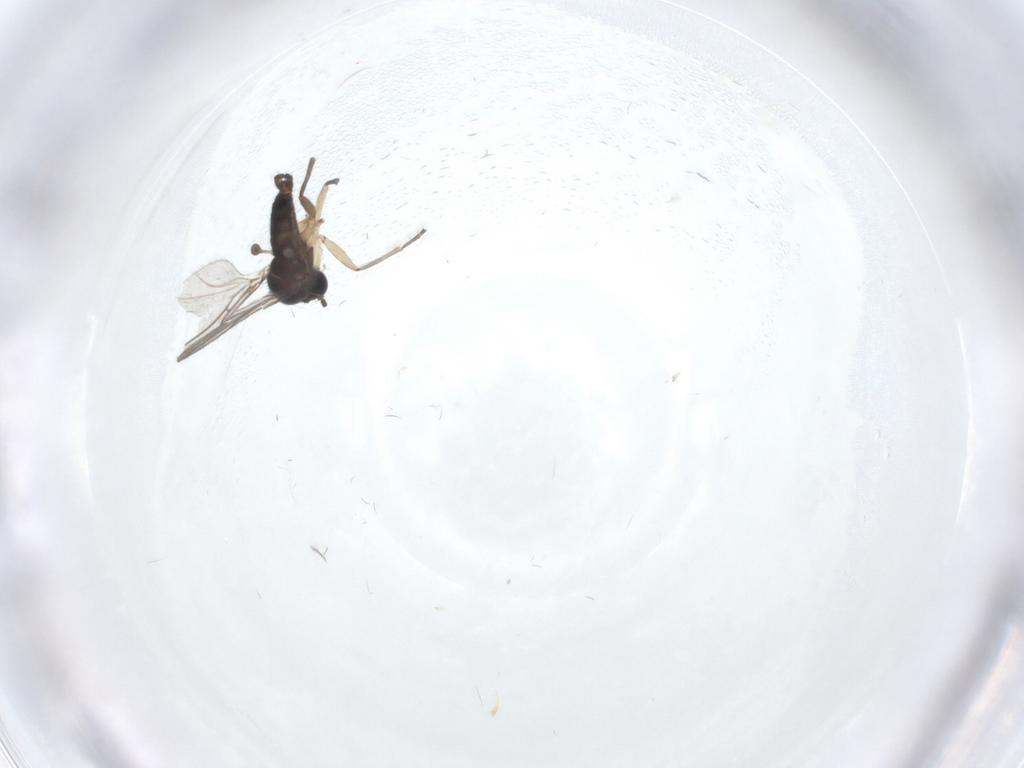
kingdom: Animalia
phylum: Arthropoda
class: Insecta
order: Diptera
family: Sciaridae
